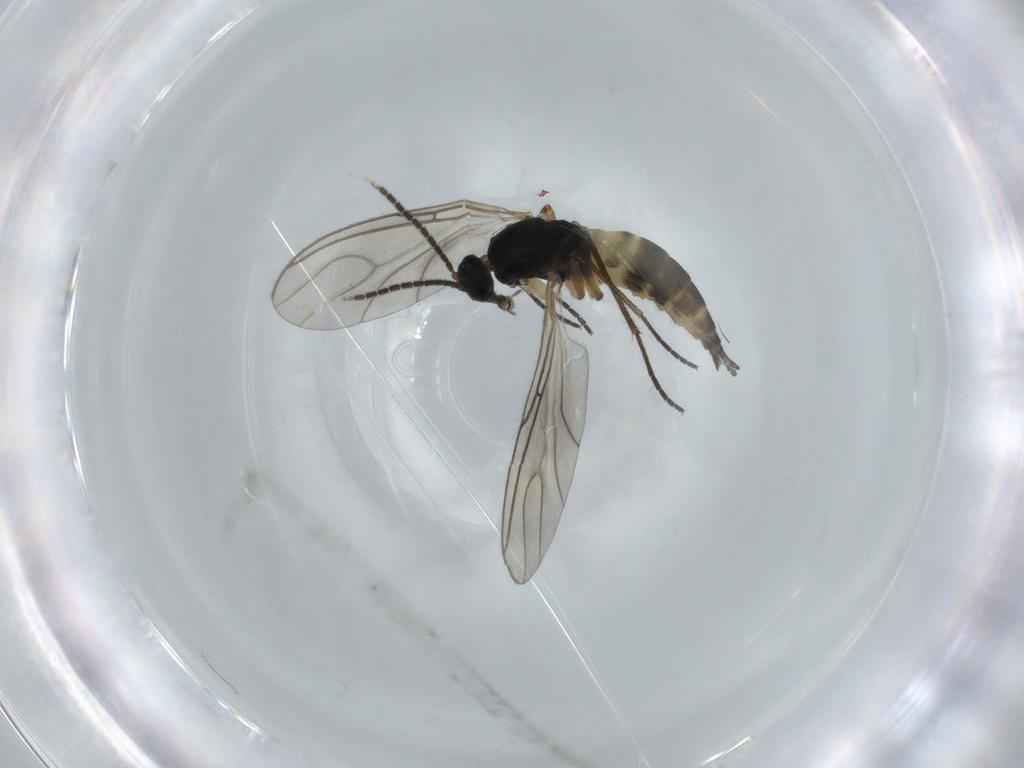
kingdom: Animalia
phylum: Arthropoda
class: Insecta
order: Diptera
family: Sciaridae
